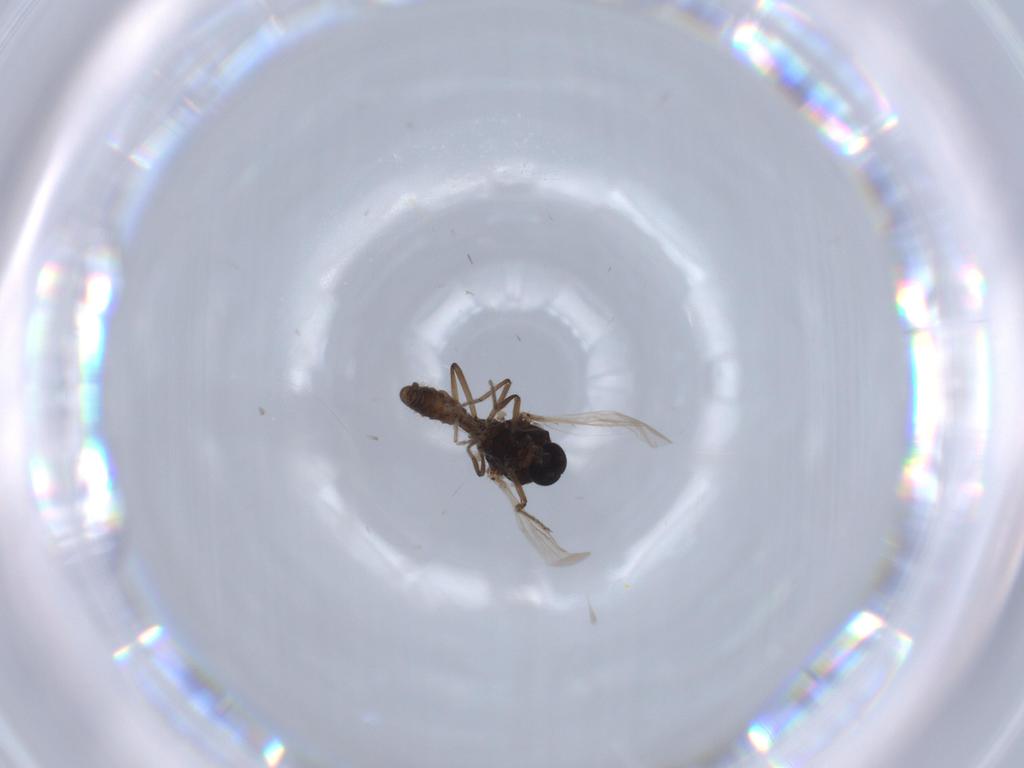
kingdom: Animalia
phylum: Arthropoda
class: Insecta
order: Diptera
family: Ceratopogonidae
